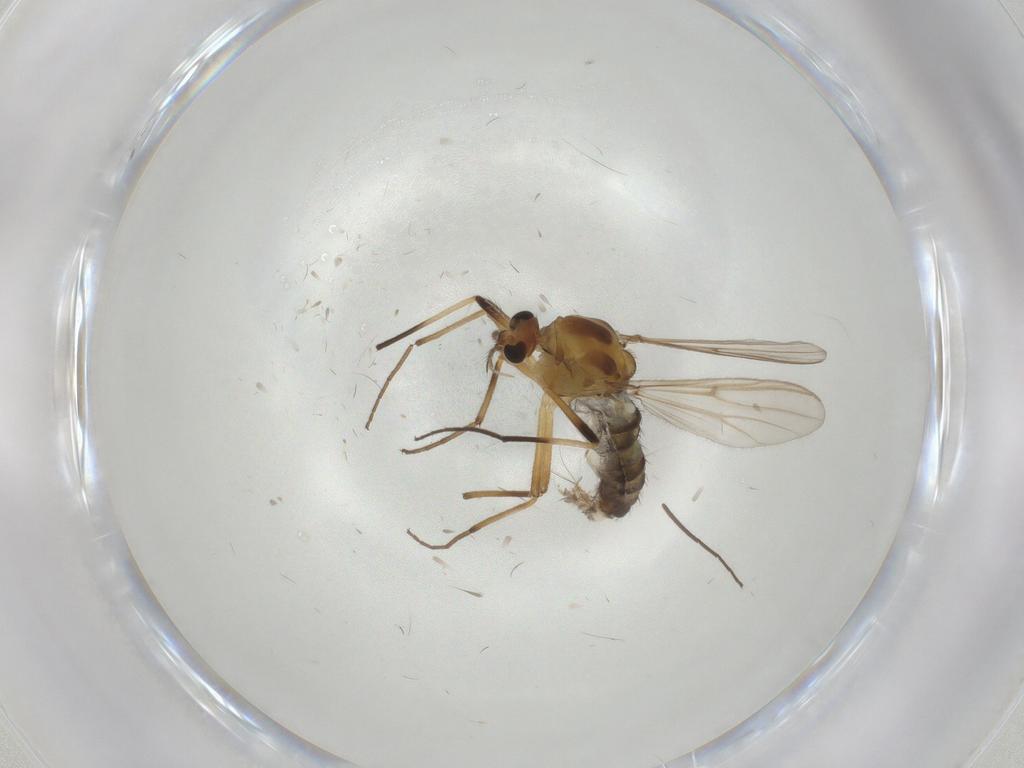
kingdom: Animalia
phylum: Arthropoda
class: Insecta
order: Diptera
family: Chironomidae
